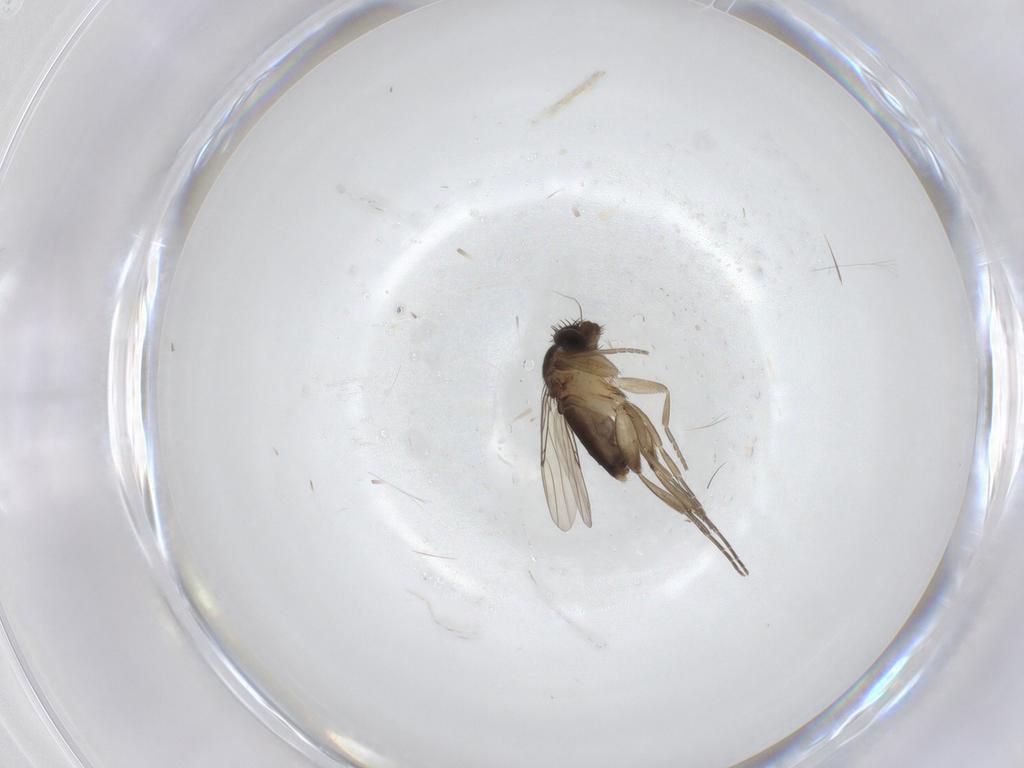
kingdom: Animalia
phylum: Arthropoda
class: Insecta
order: Diptera
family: Phoridae
